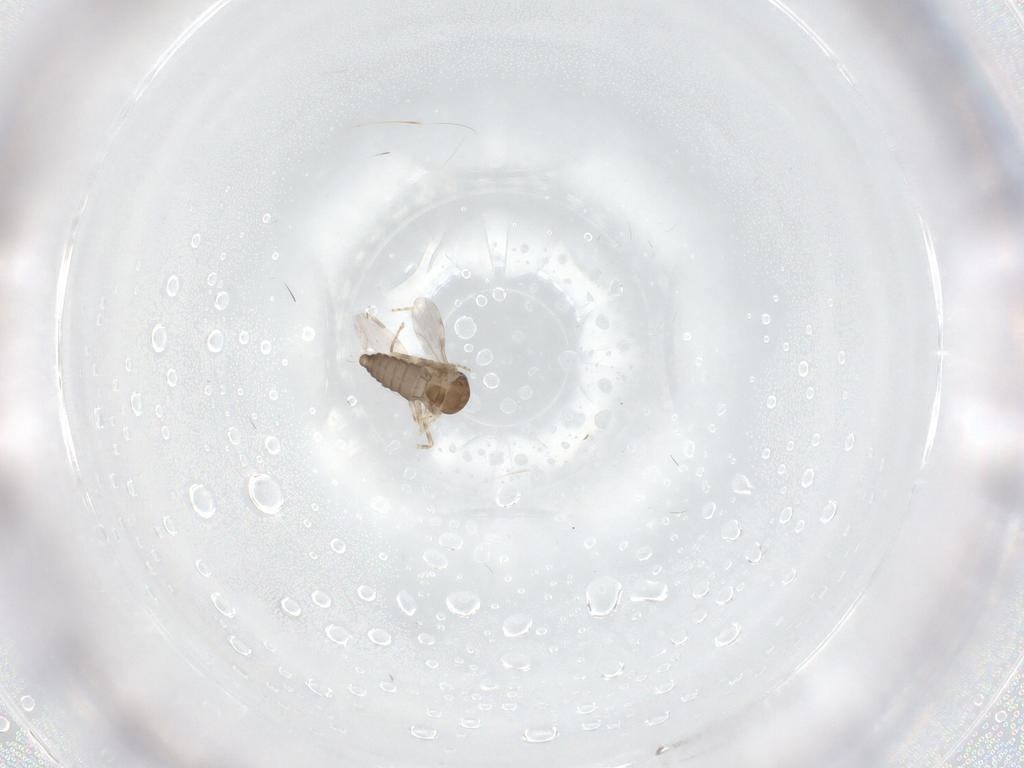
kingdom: Animalia
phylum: Arthropoda
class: Insecta
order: Diptera
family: Ceratopogonidae
